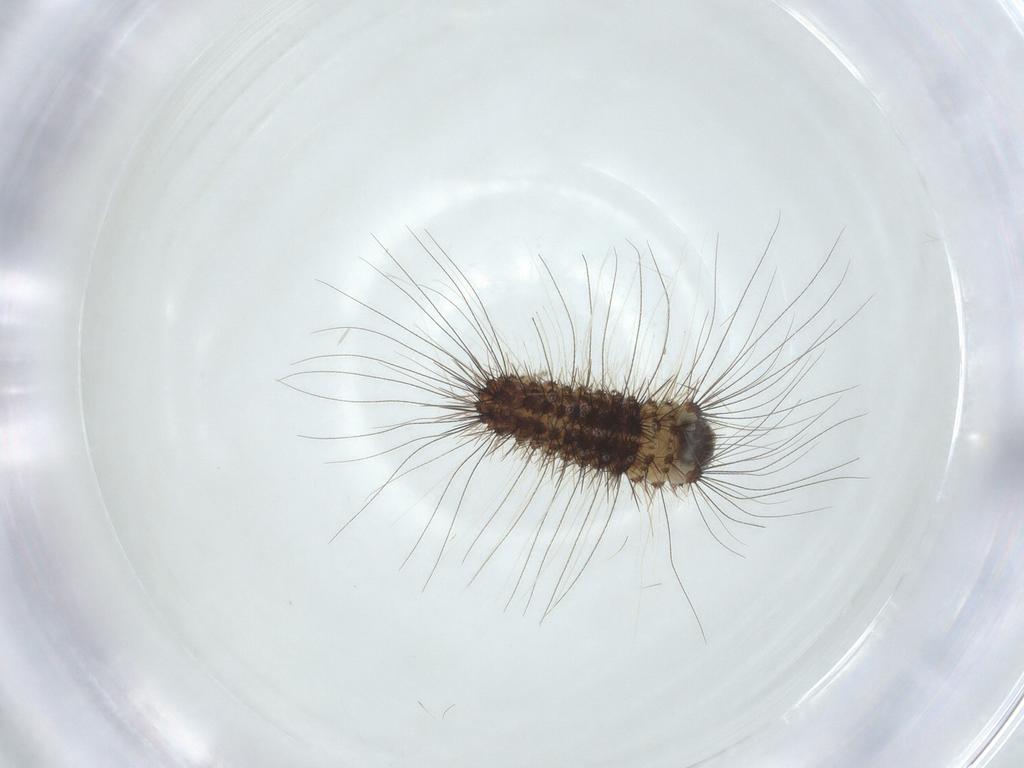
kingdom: Animalia
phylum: Arthropoda
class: Insecta
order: Lepidoptera
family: Erebidae
